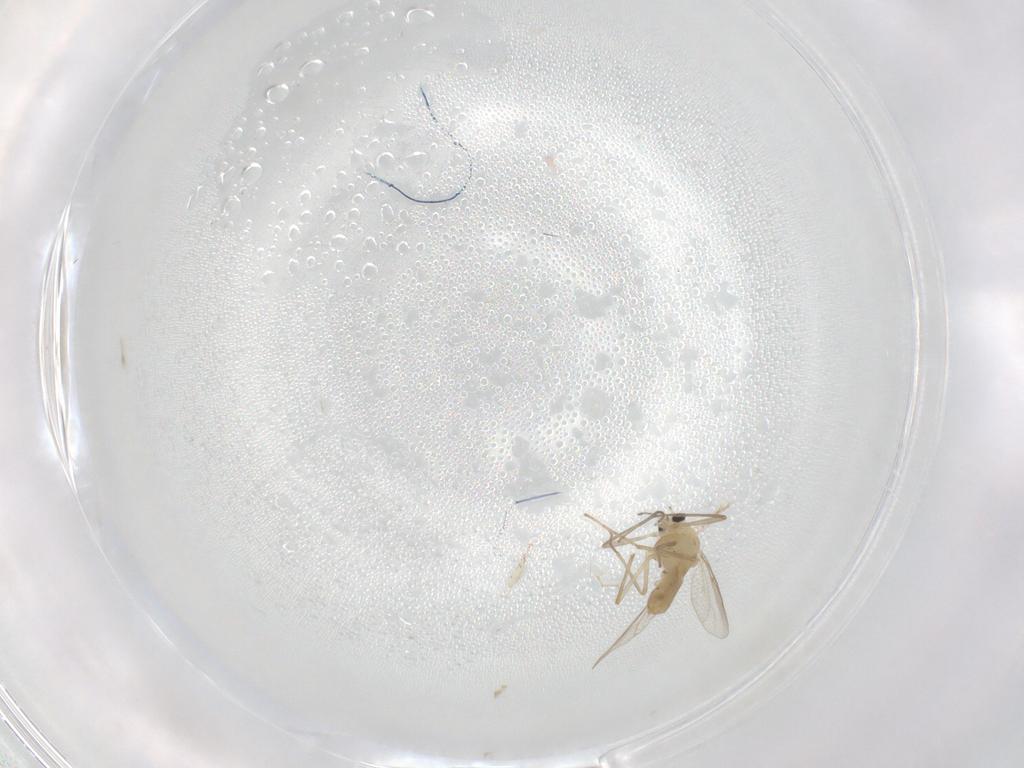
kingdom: Animalia
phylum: Arthropoda
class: Insecta
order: Diptera
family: Chironomidae
